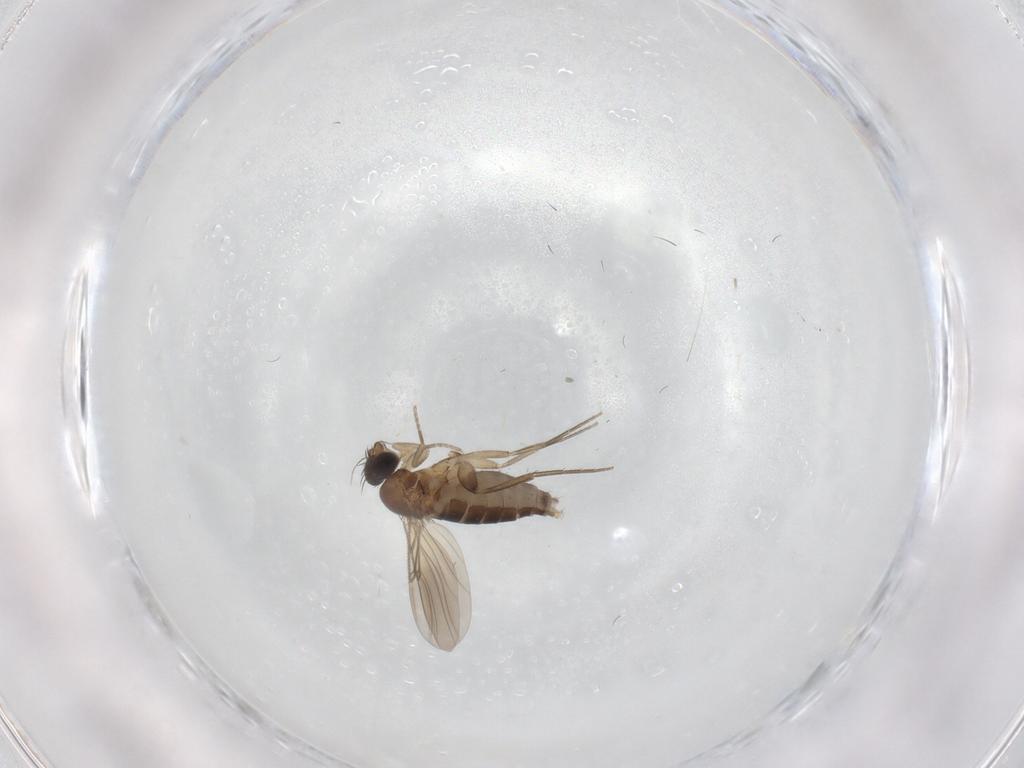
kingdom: Animalia
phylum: Arthropoda
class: Insecta
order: Diptera
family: Phoridae
